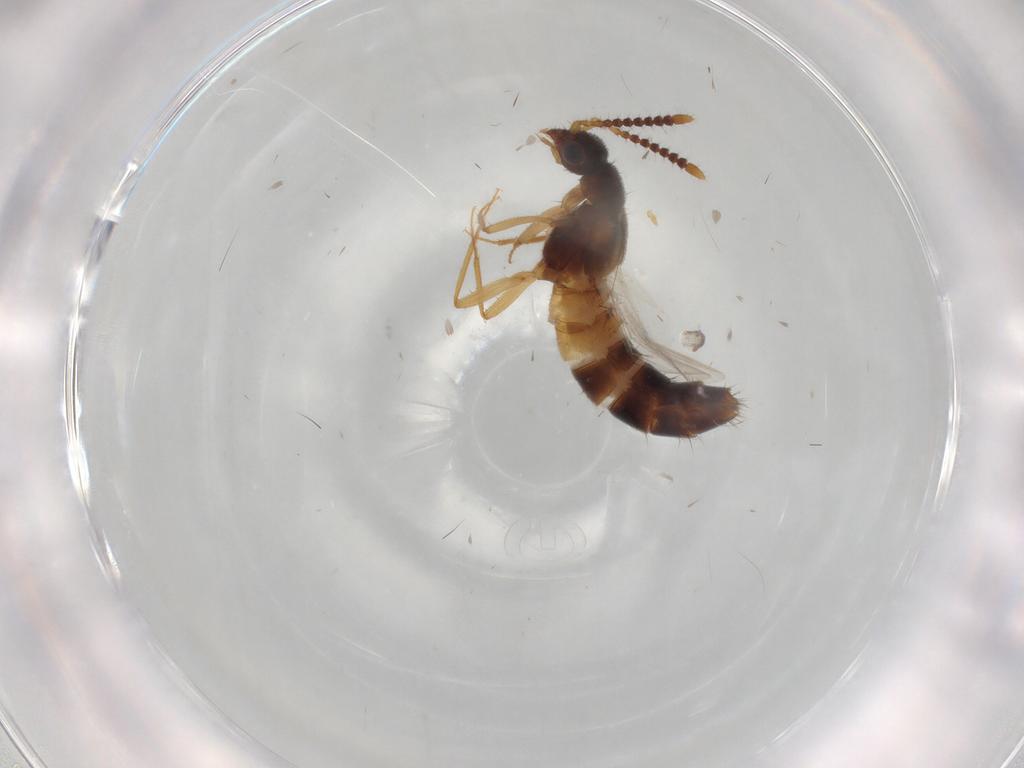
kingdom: Animalia
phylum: Arthropoda
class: Insecta
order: Coleoptera
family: Staphylinidae
